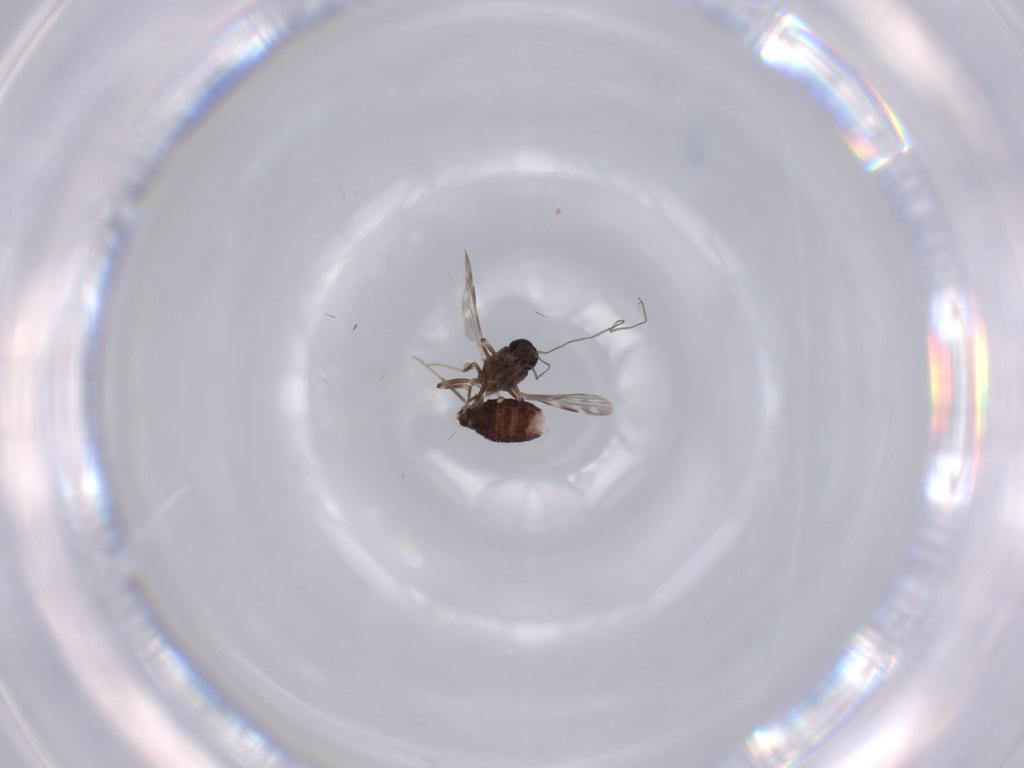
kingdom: Animalia
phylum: Arthropoda
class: Insecta
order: Diptera
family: Ceratopogonidae
